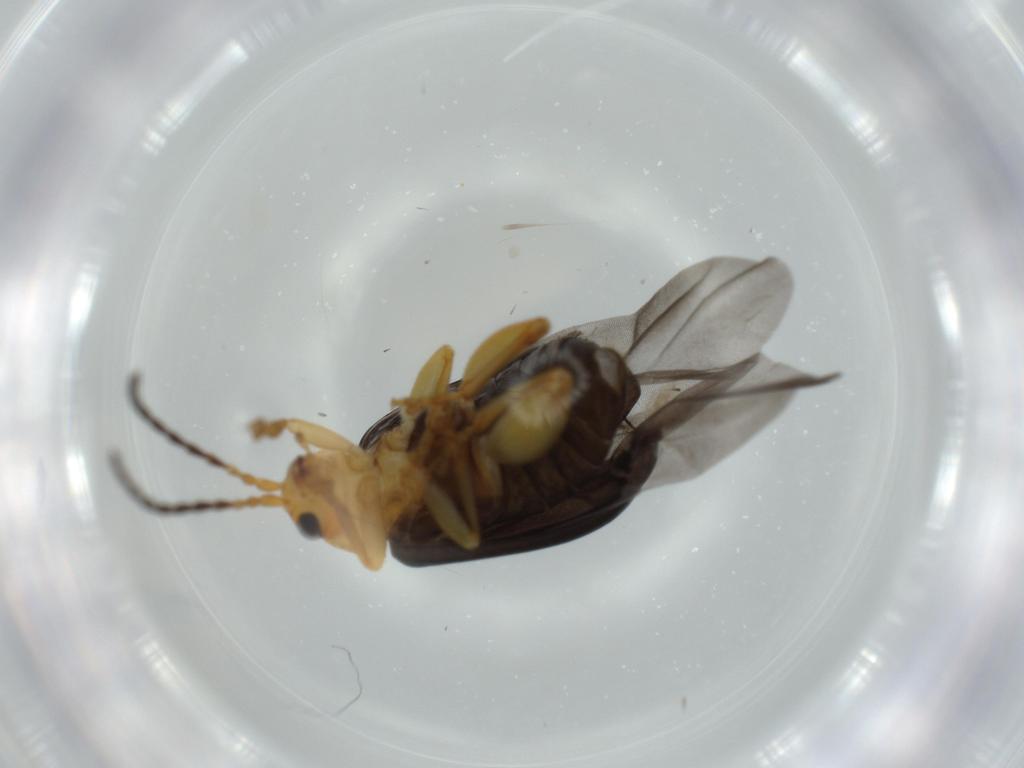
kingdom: Animalia
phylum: Arthropoda
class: Insecta
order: Coleoptera
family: Chrysomelidae
